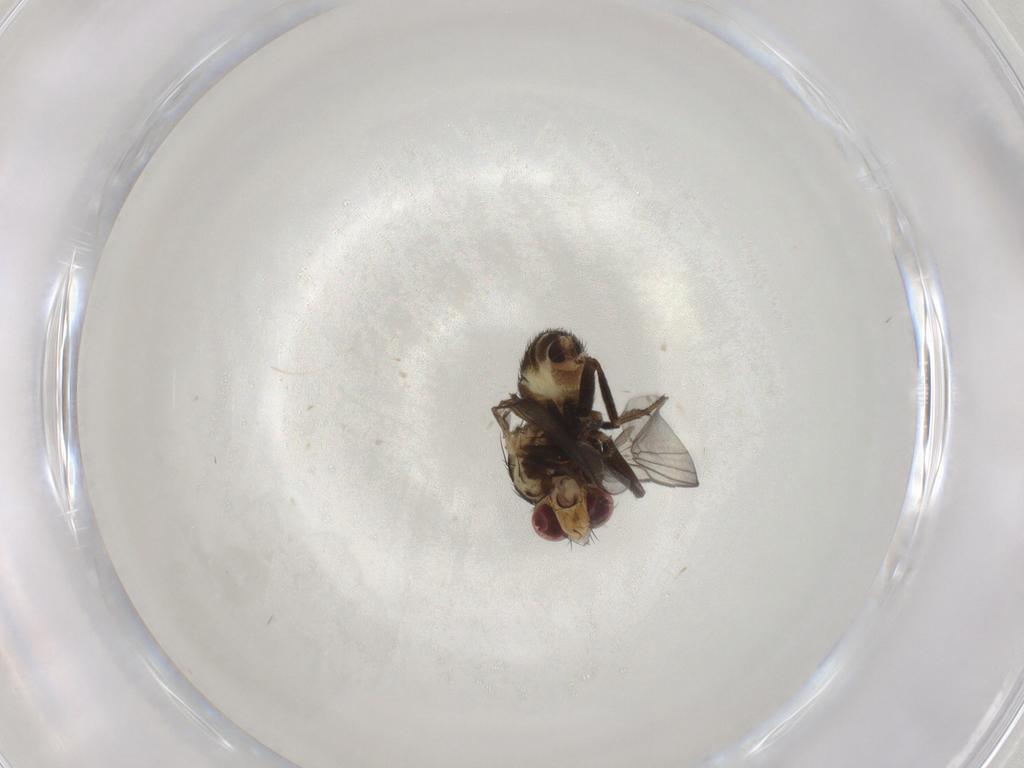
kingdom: Animalia
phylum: Arthropoda
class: Insecta
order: Diptera
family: Agromyzidae
